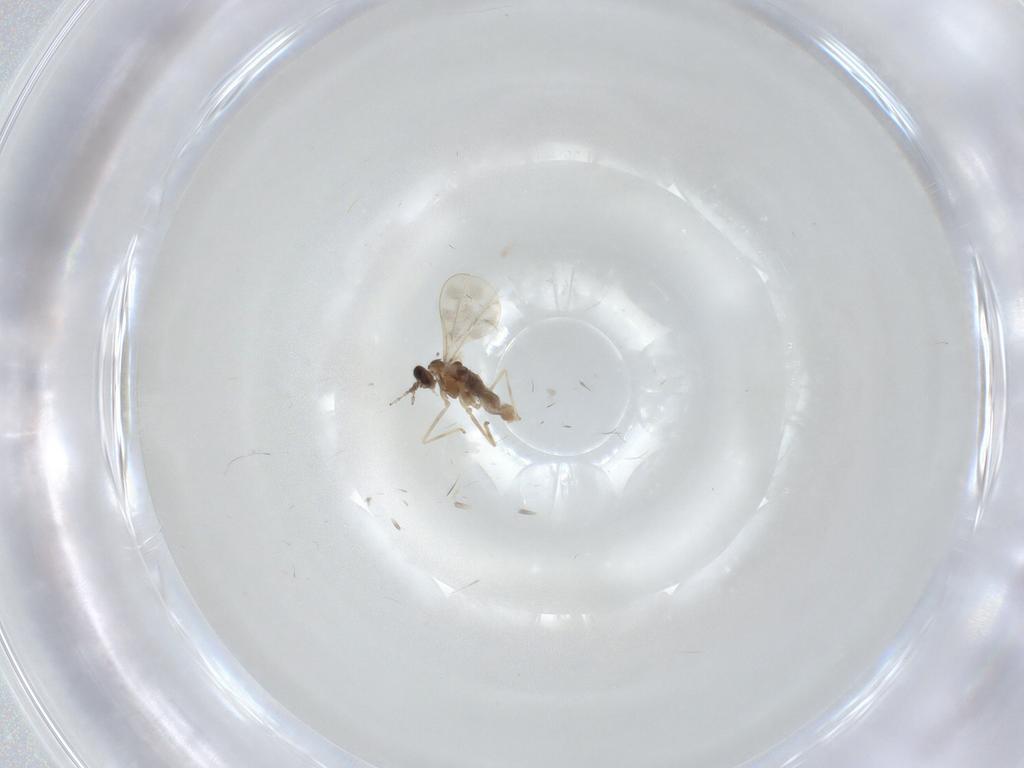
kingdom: Animalia
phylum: Arthropoda
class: Insecta
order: Diptera
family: Cecidomyiidae
